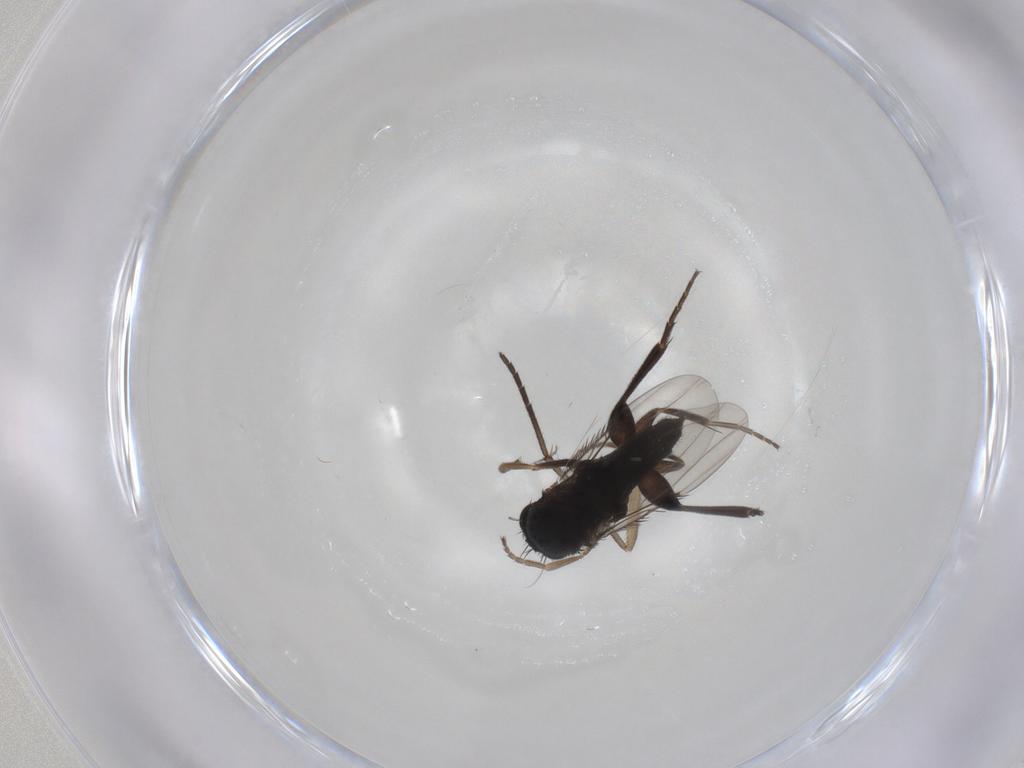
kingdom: Animalia
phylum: Arthropoda
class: Insecta
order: Diptera
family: Phoridae
